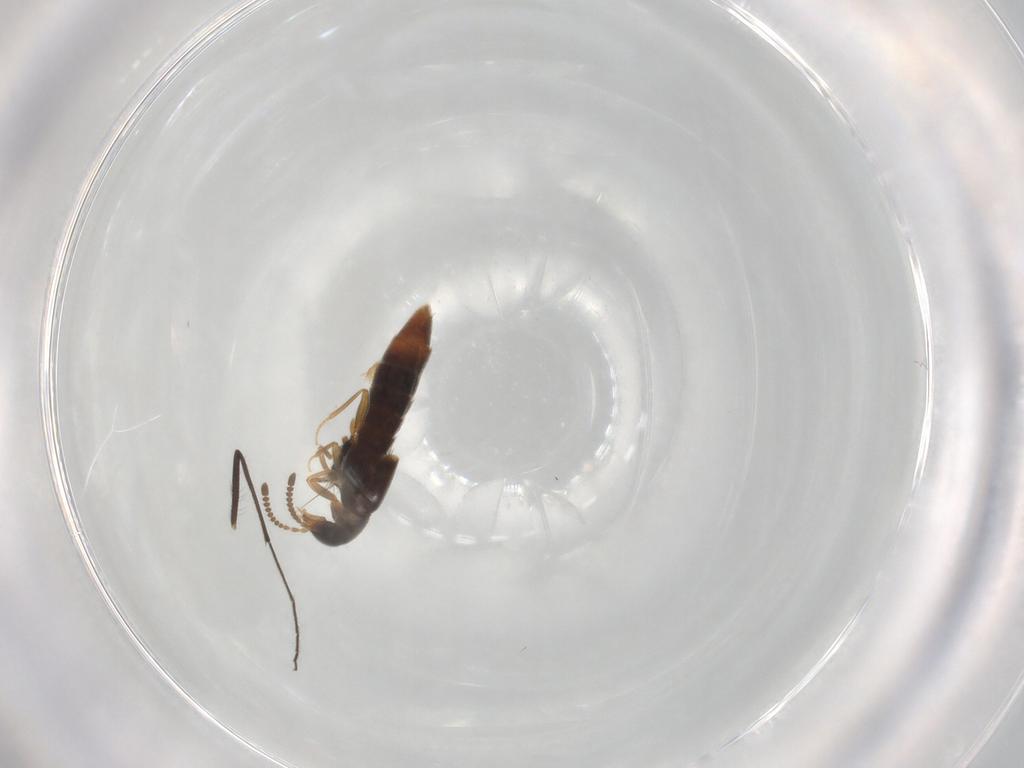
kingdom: Animalia
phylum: Arthropoda
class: Insecta
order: Coleoptera
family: Staphylinidae
